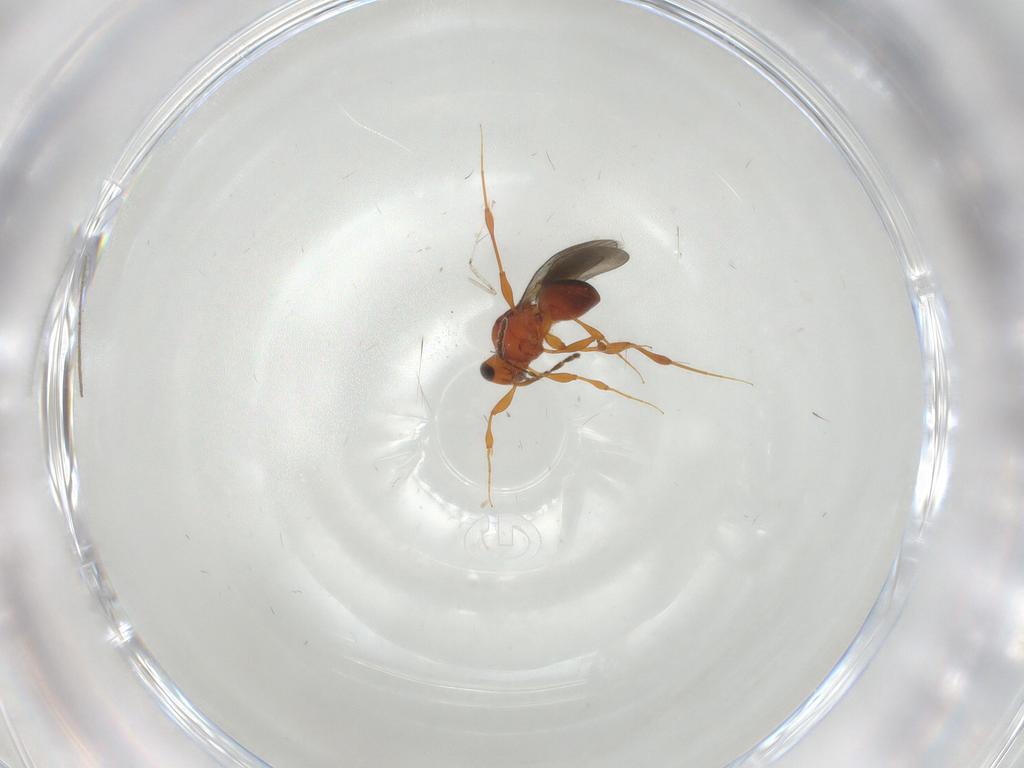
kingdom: Animalia
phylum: Arthropoda
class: Insecta
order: Hymenoptera
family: Platygastridae
